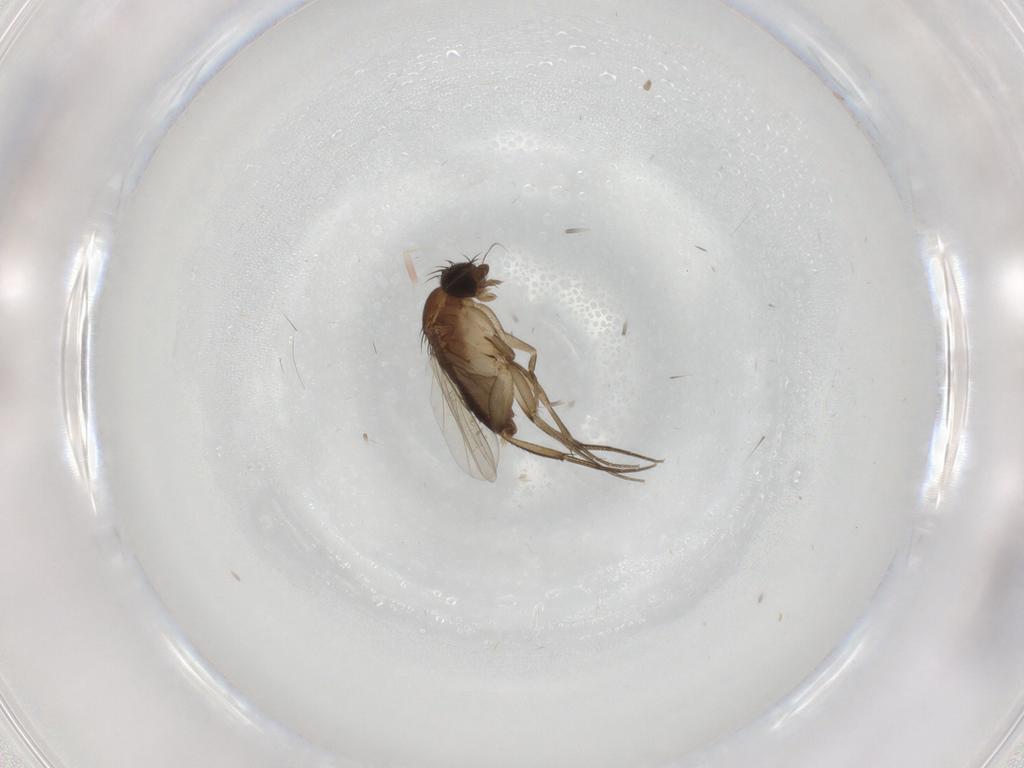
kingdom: Animalia
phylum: Arthropoda
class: Insecta
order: Diptera
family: Phoridae
